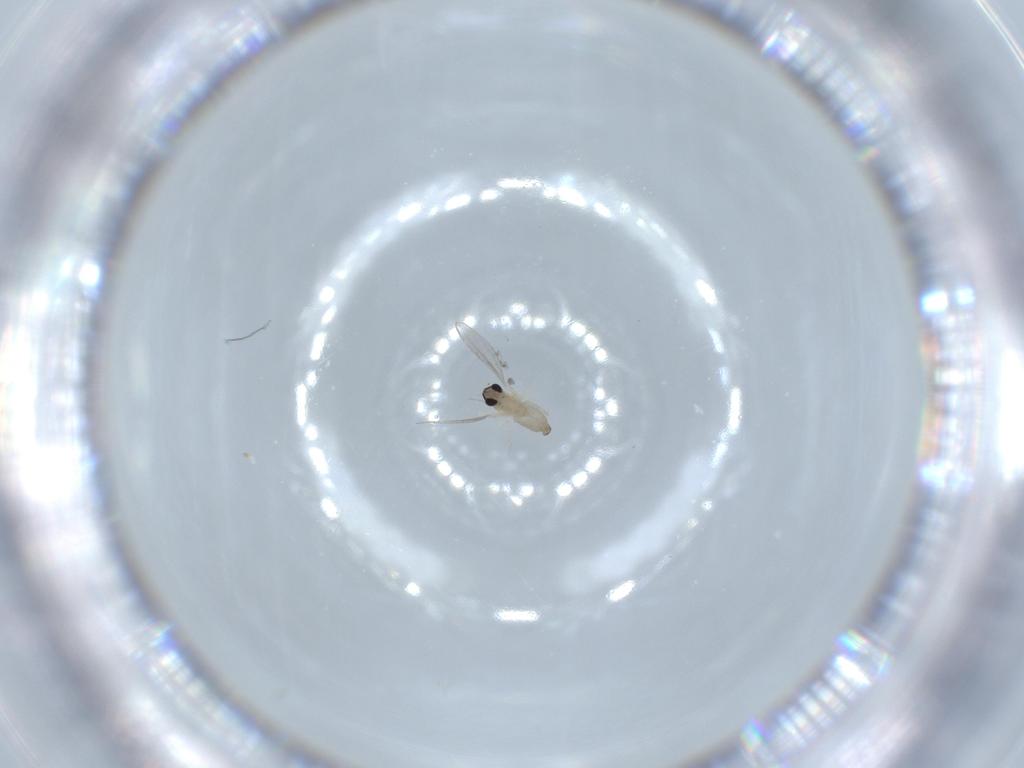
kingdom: Animalia
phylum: Arthropoda
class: Insecta
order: Diptera
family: Cecidomyiidae
